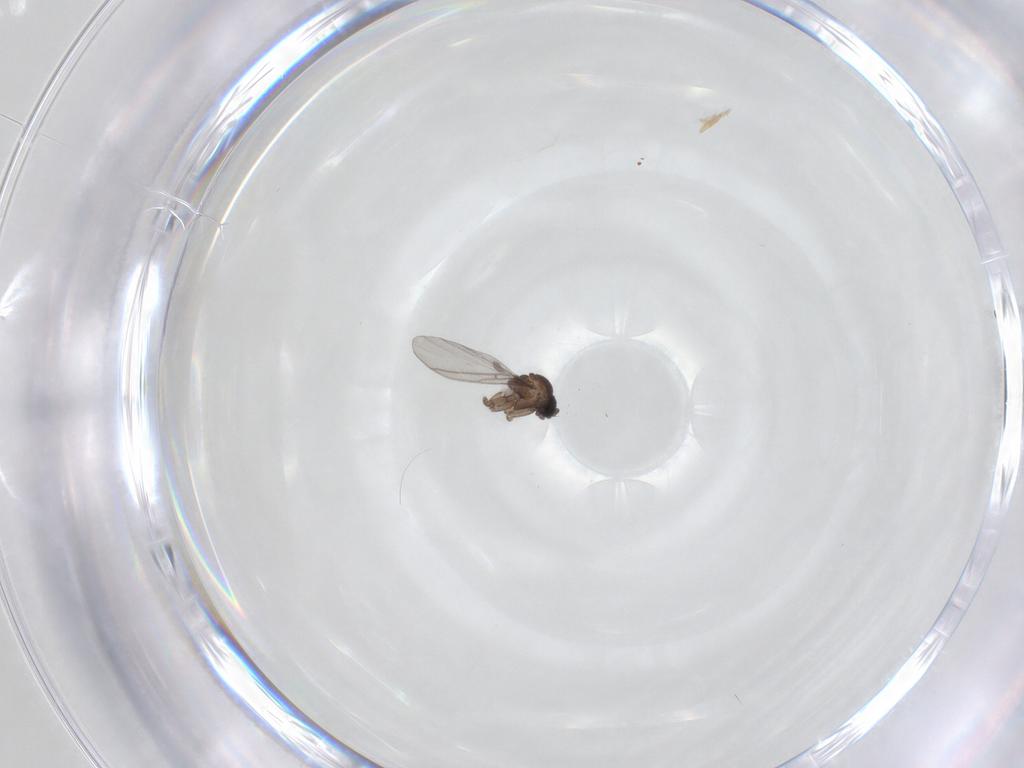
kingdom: Animalia
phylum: Arthropoda
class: Insecta
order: Diptera
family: Sciaridae
